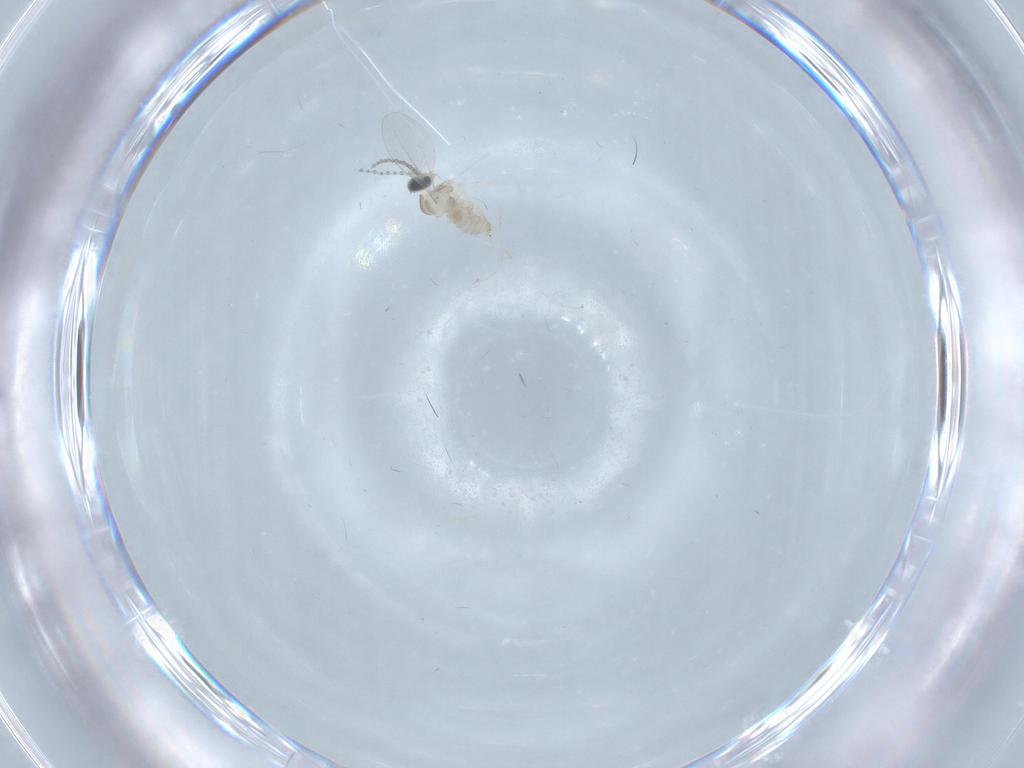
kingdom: Animalia
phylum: Arthropoda
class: Insecta
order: Diptera
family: Cecidomyiidae
